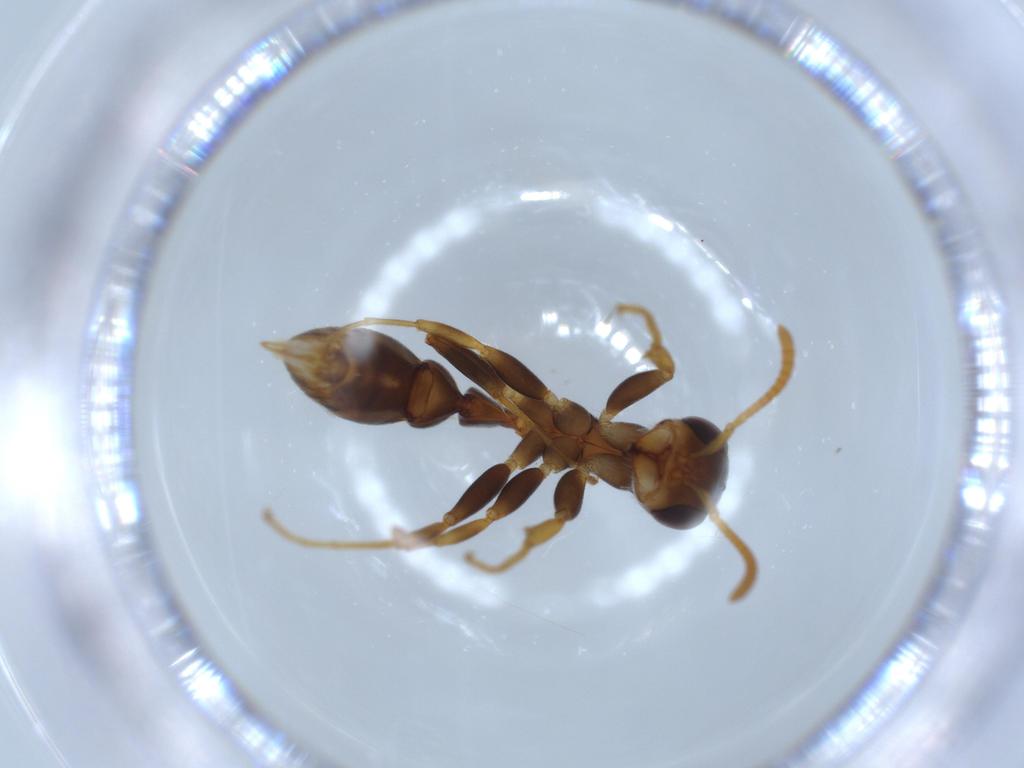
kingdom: Animalia
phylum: Arthropoda
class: Insecta
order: Hymenoptera
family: Formicidae
